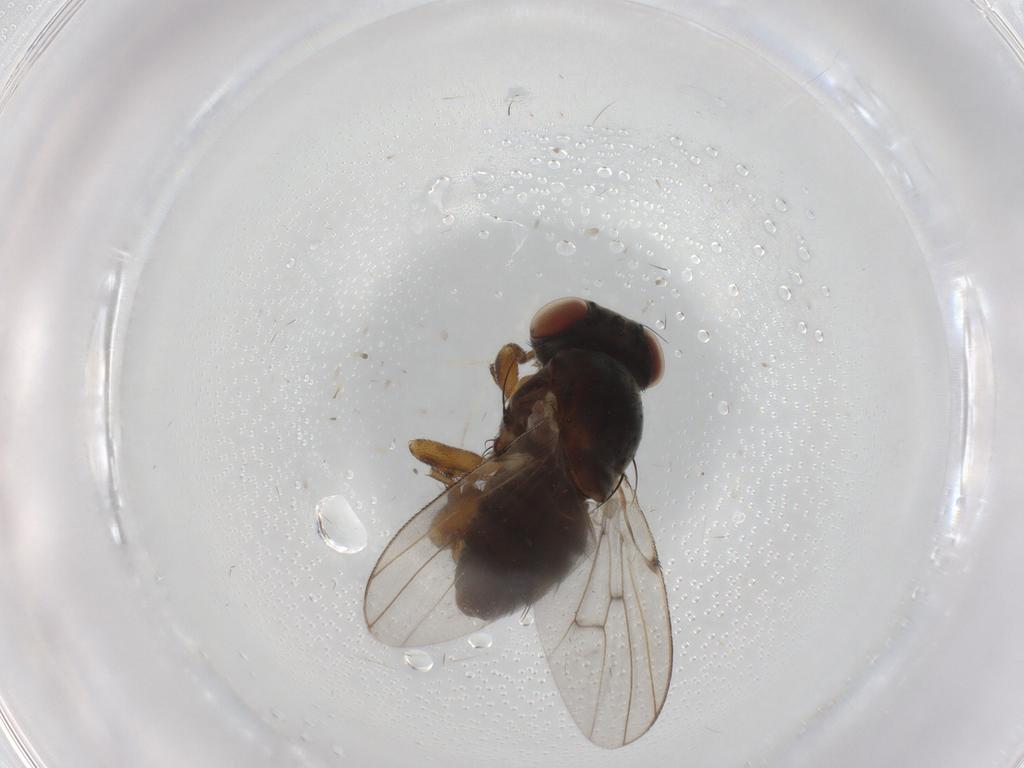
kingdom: Animalia
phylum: Arthropoda
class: Insecta
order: Diptera
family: Odiniidae
